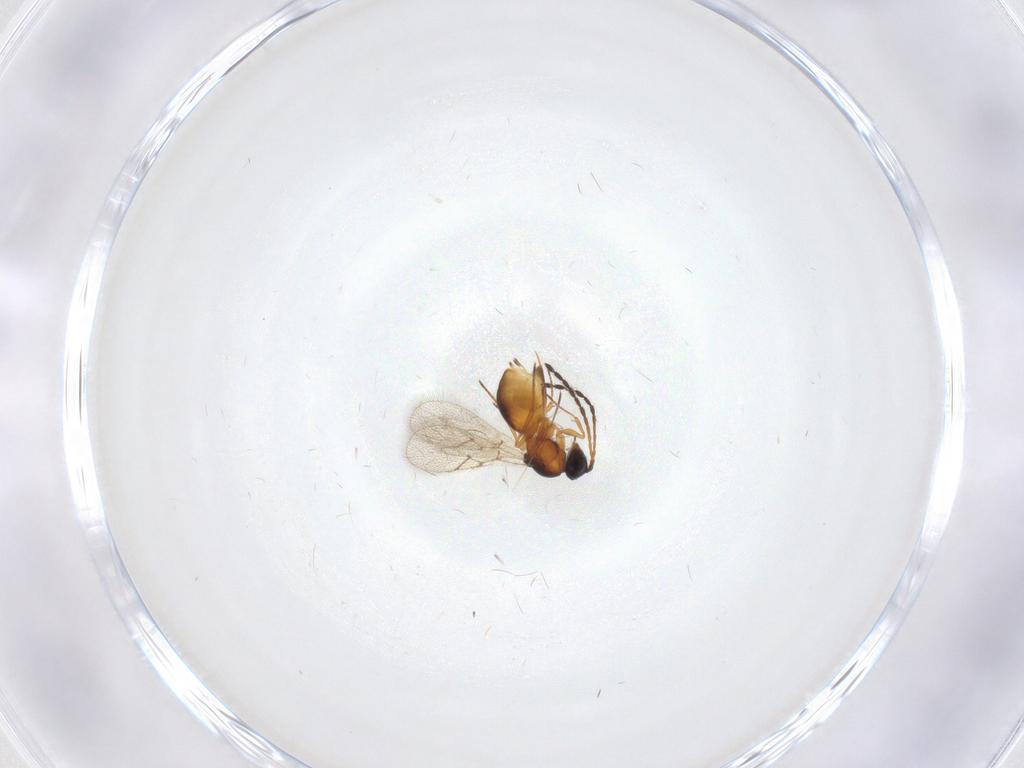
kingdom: Animalia
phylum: Arthropoda
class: Insecta
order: Hymenoptera
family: Figitidae
